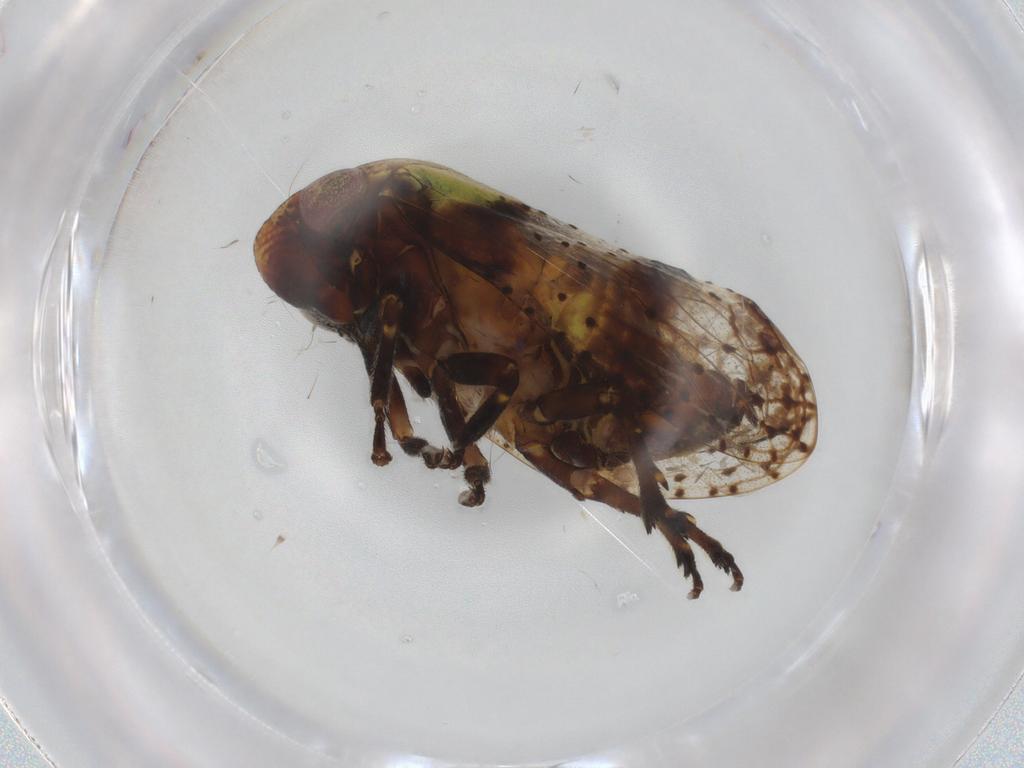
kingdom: Animalia
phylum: Arthropoda
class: Insecta
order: Hemiptera
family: Machaerotidae
